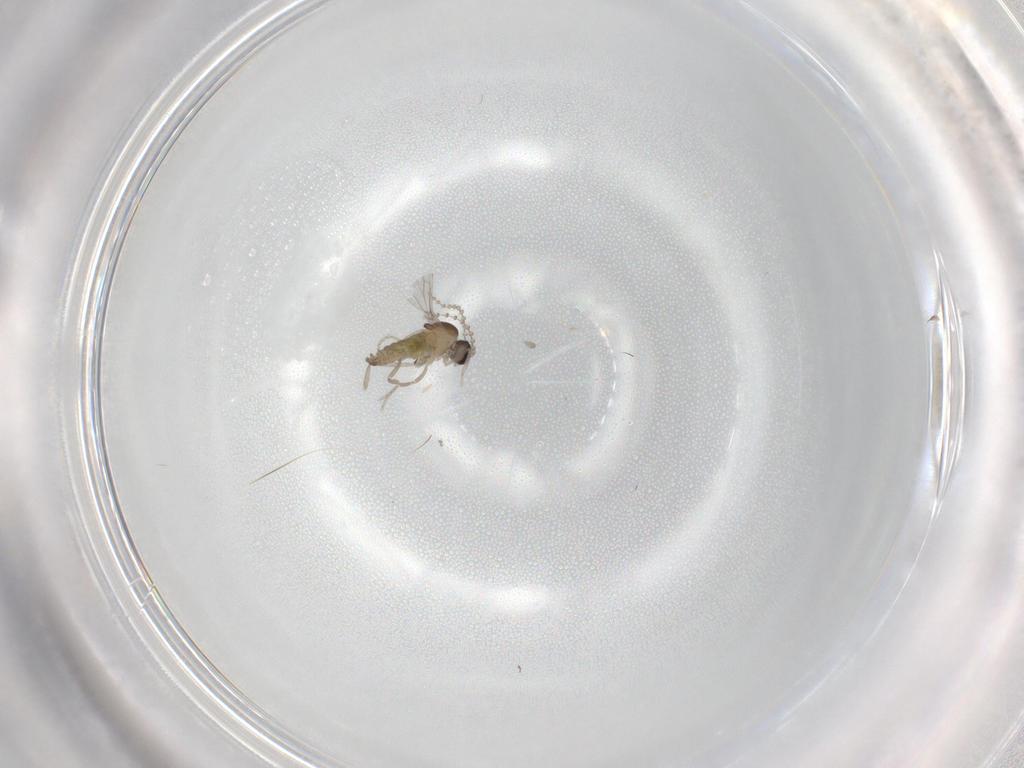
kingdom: Animalia
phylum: Arthropoda
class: Insecta
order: Diptera
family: Cecidomyiidae
